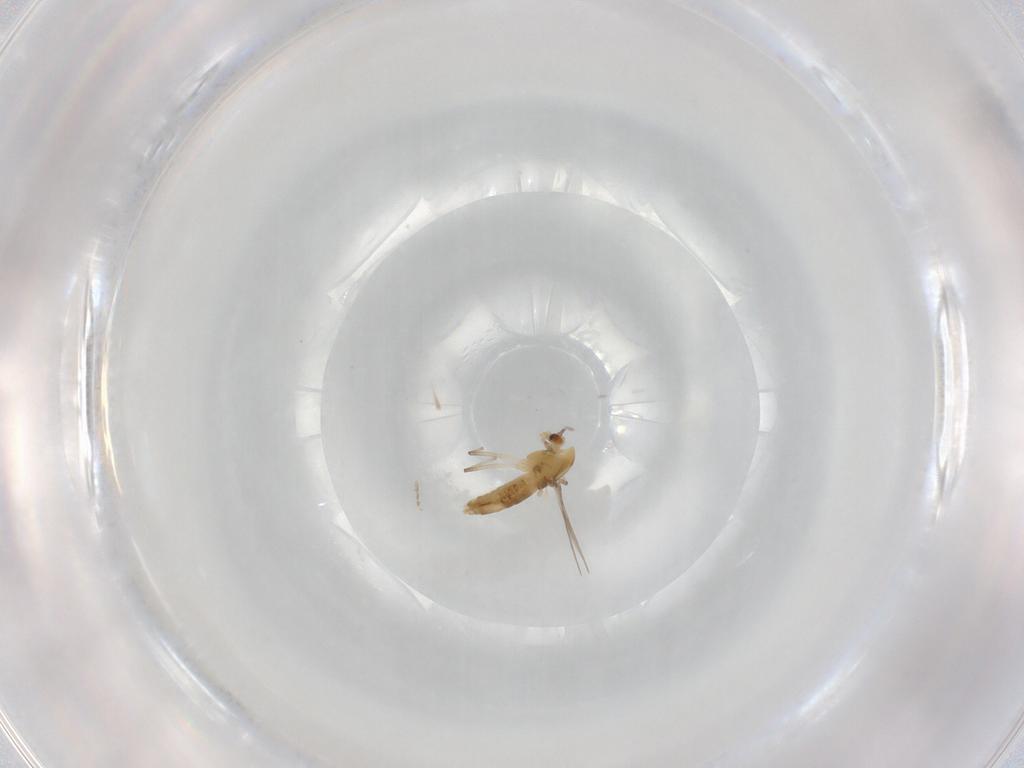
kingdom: Animalia
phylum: Arthropoda
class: Insecta
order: Diptera
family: Chironomidae
